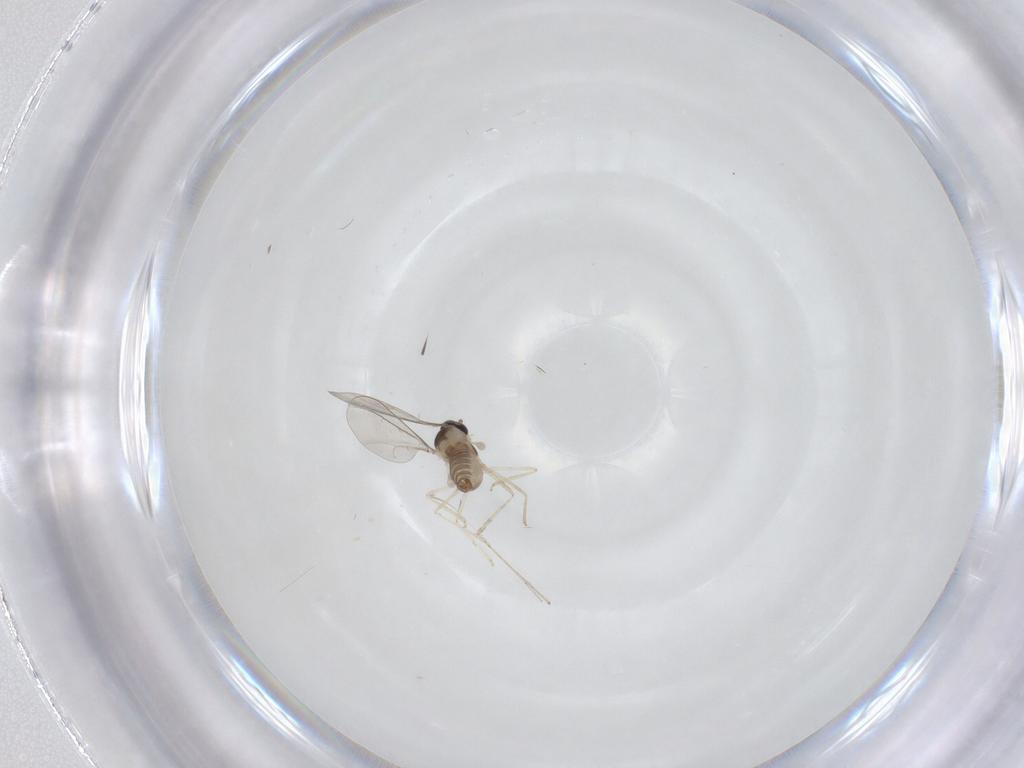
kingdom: Animalia
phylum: Arthropoda
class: Insecta
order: Diptera
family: Cecidomyiidae
